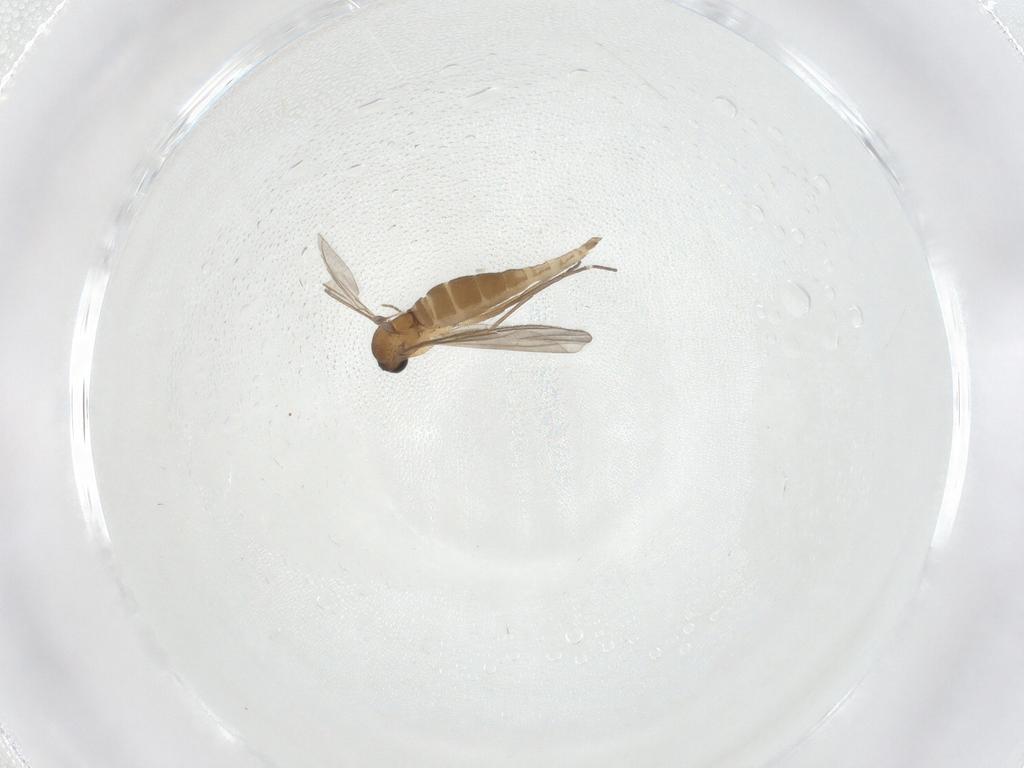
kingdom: Animalia
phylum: Arthropoda
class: Insecta
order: Diptera
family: Sciaridae
